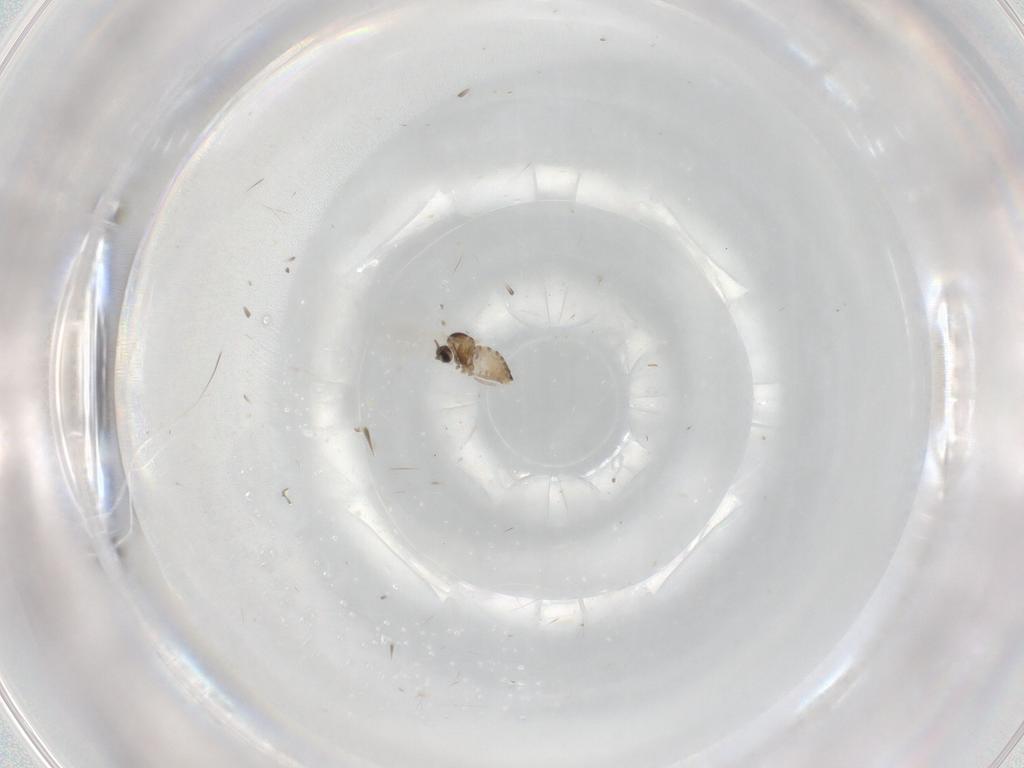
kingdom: Animalia
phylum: Arthropoda
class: Insecta
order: Diptera
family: Cecidomyiidae
